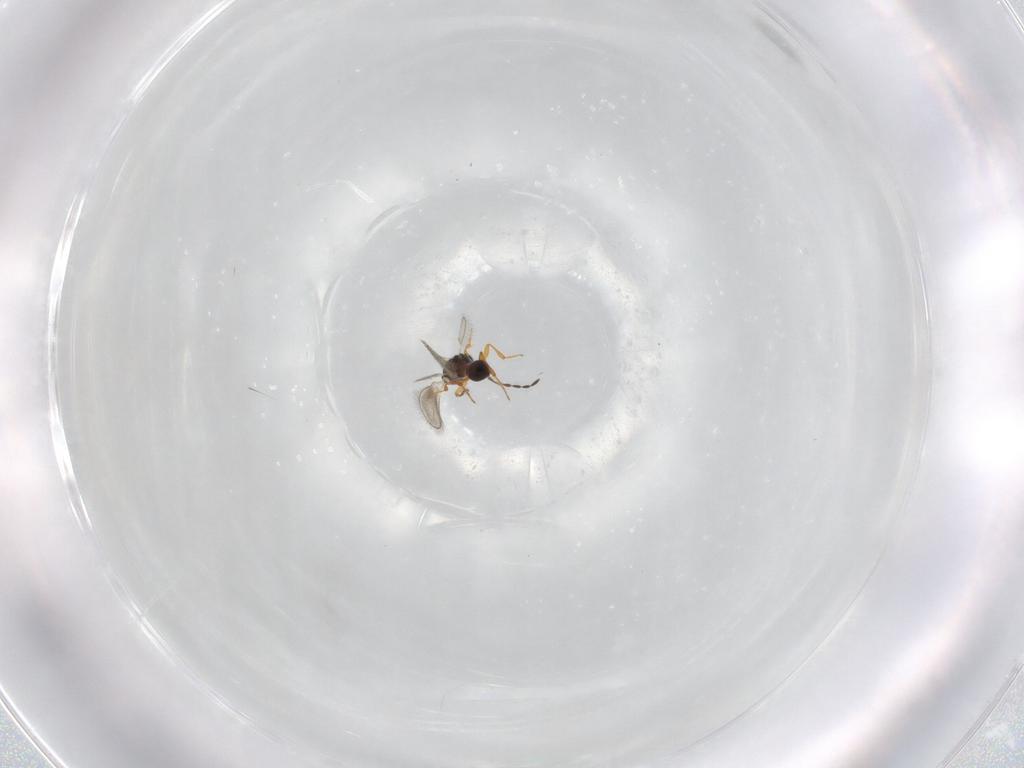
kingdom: Animalia
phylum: Arthropoda
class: Insecta
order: Hymenoptera
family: Platygastridae
